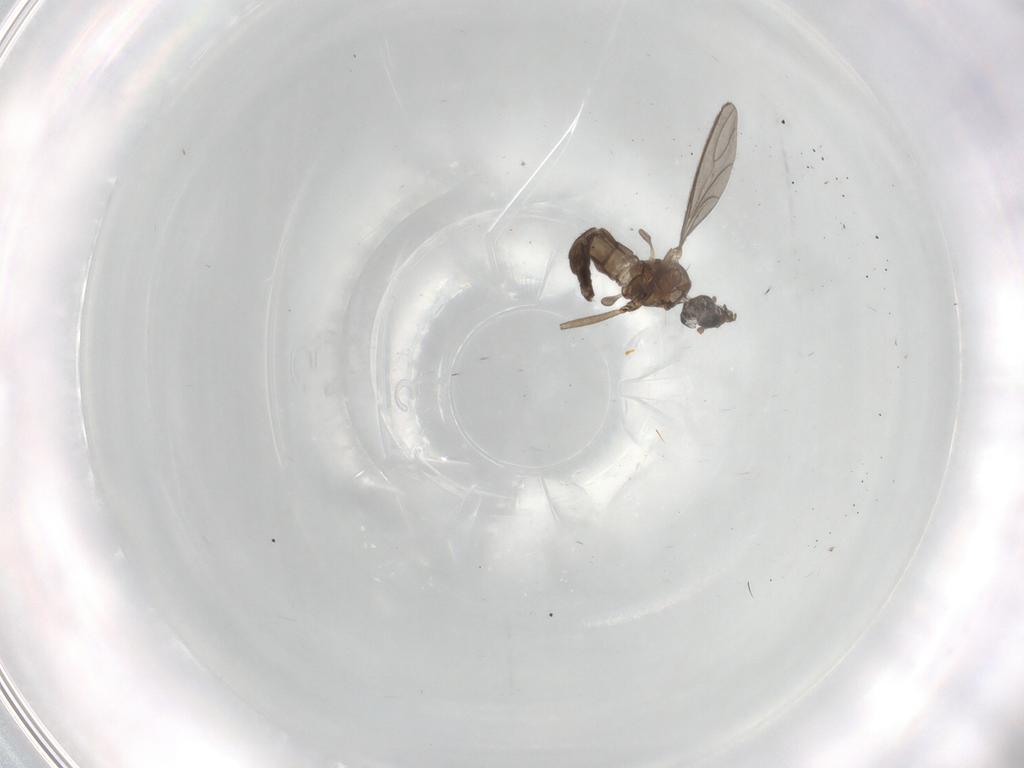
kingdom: Animalia
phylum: Arthropoda
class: Insecta
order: Diptera
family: Sciaridae
